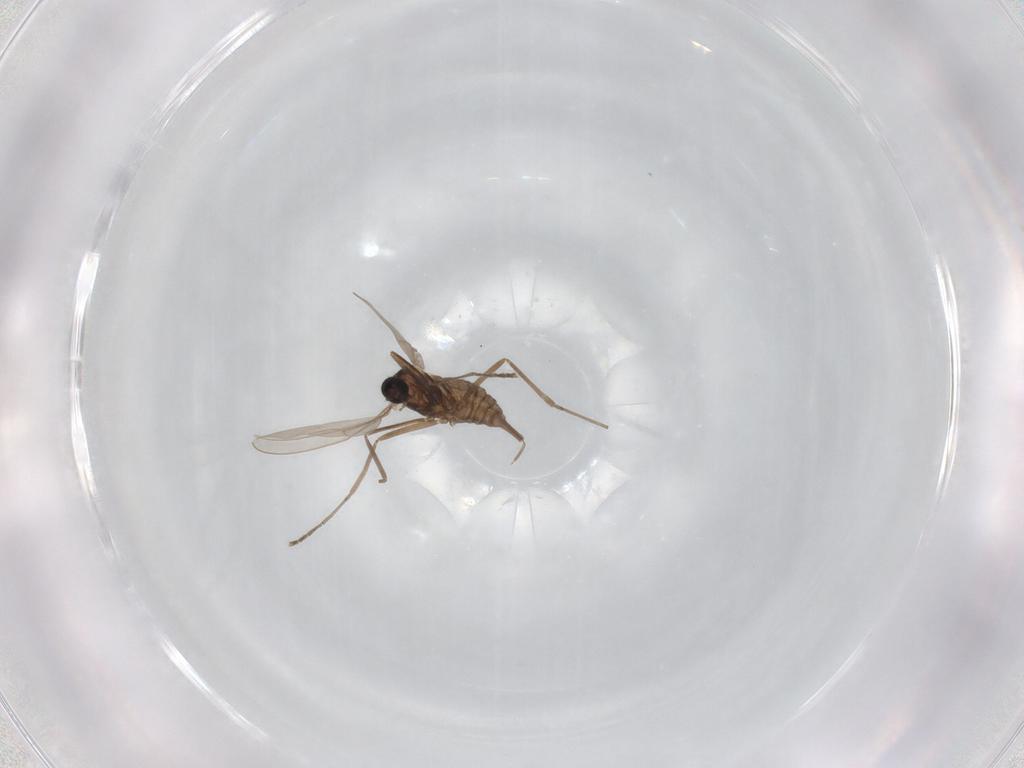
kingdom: Animalia
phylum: Arthropoda
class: Insecta
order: Diptera
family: Cecidomyiidae
